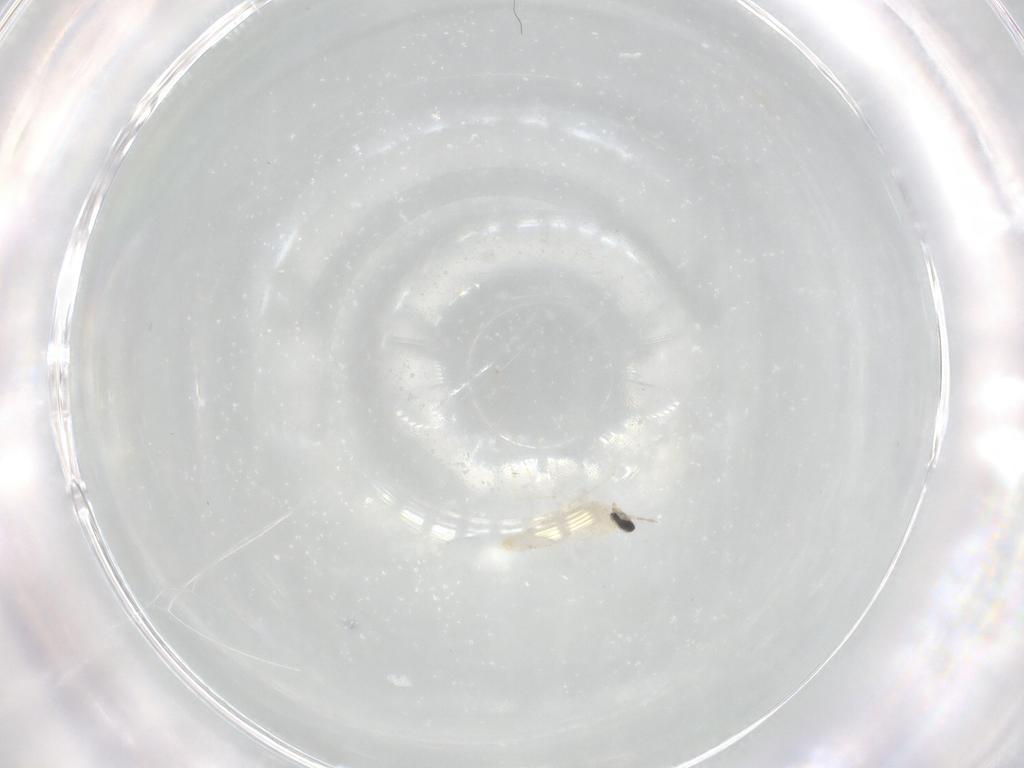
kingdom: Animalia
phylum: Arthropoda
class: Insecta
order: Diptera
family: Cecidomyiidae
